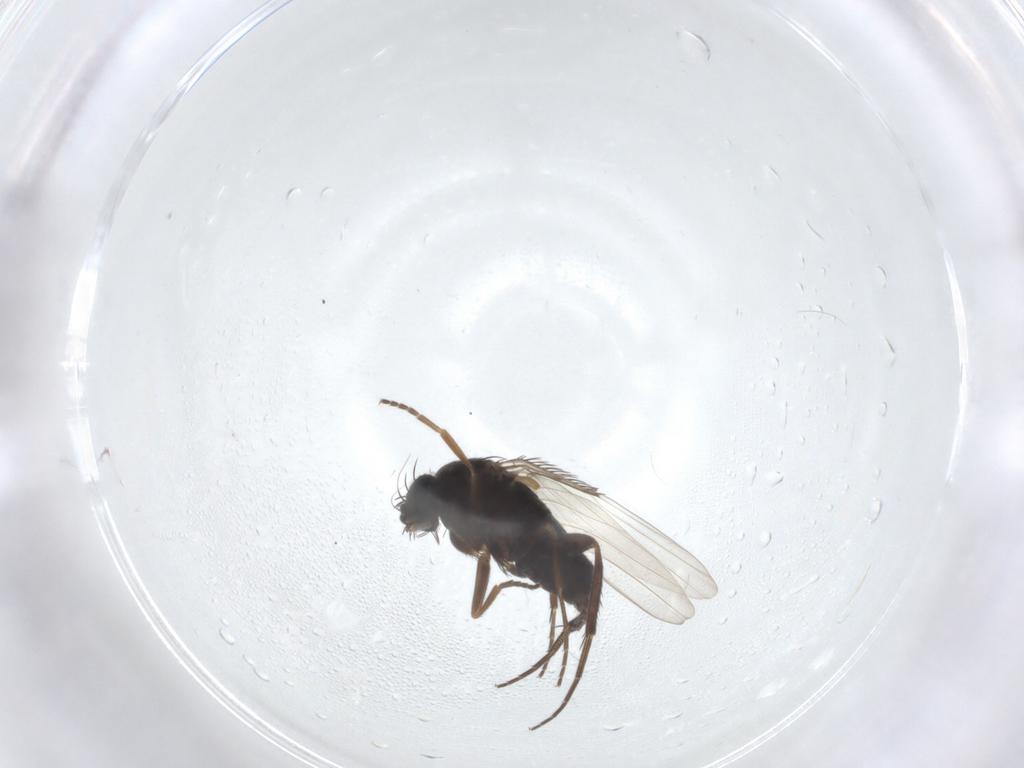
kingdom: Animalia
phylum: Arthropoda
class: Insecta
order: Diptera
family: Phoridae
